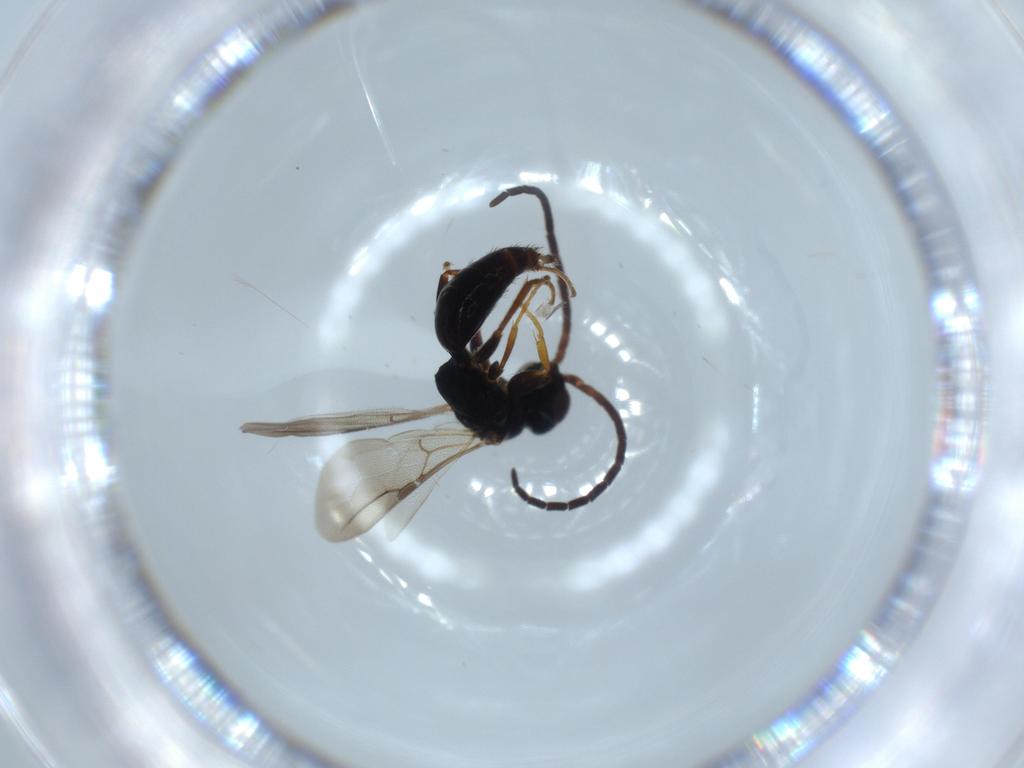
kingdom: Animalia
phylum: Arthropoda
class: Insecta
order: Hymenoptera
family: Bethylidae
